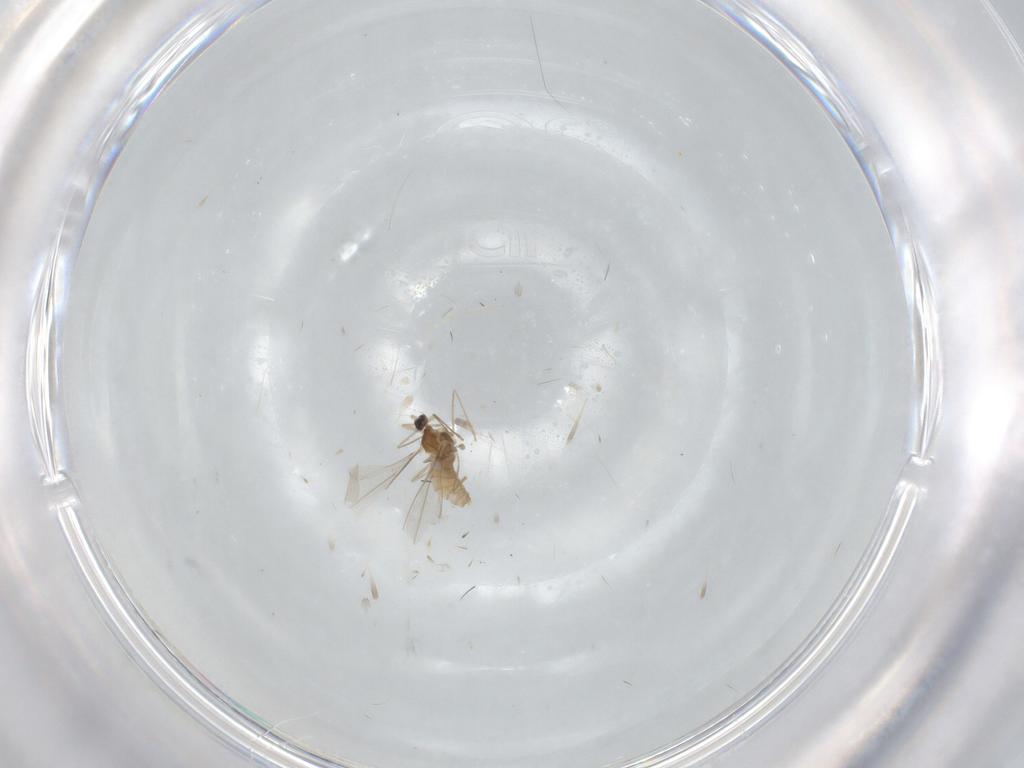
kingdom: Animalia
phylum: Arthropoda
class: Insecta
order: Diptera
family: Cecidomyiidae
